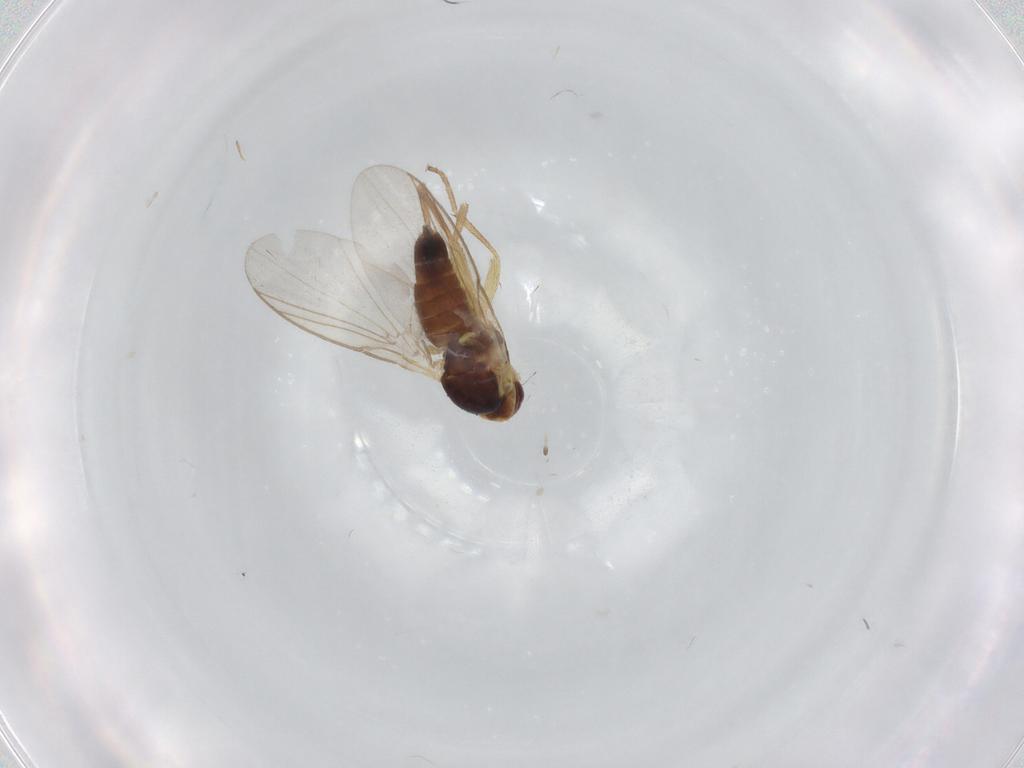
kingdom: Animalia
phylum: Arthropoda
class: Insecta
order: Diptera
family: Agromyzidae
